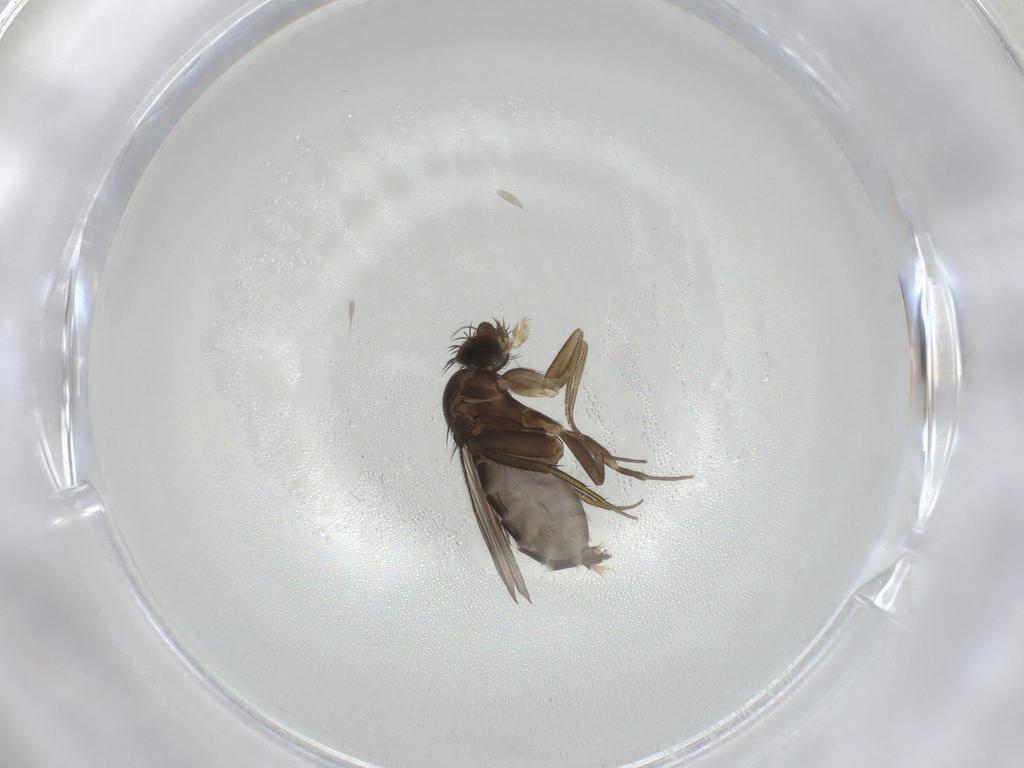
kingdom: Animalia
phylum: Arthropoda
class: Insecta
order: Diptera
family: Phoridae
